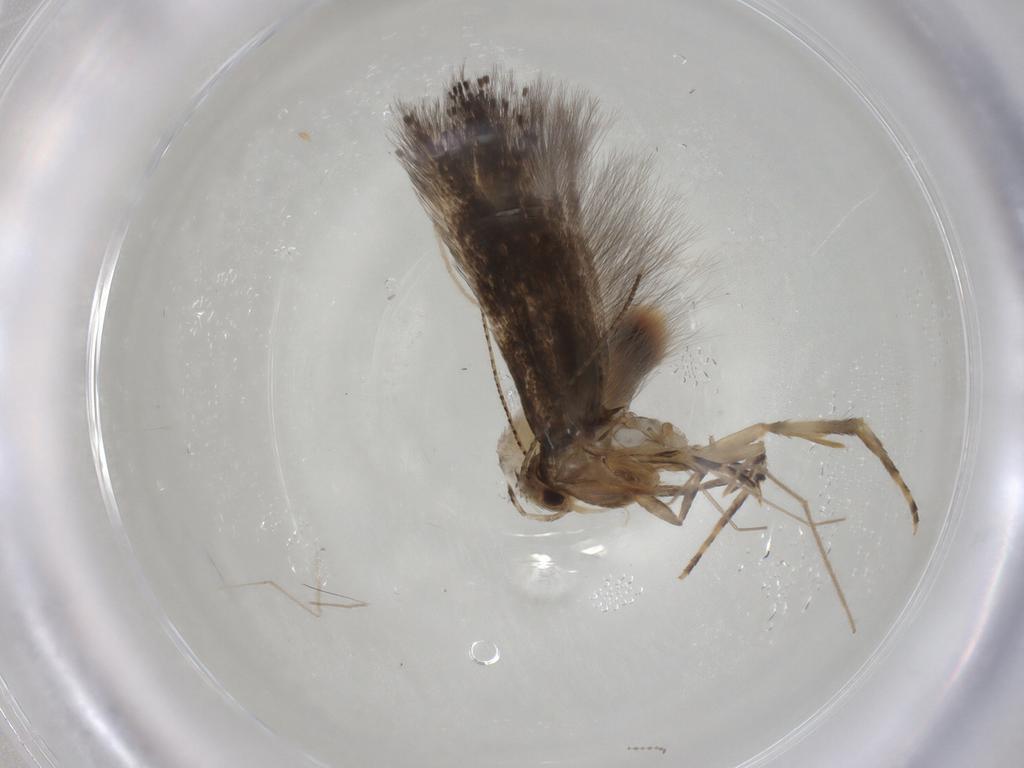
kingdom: Animalia
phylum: Arthropoda
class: Insecta
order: Lepidoptera
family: Elachistidae
